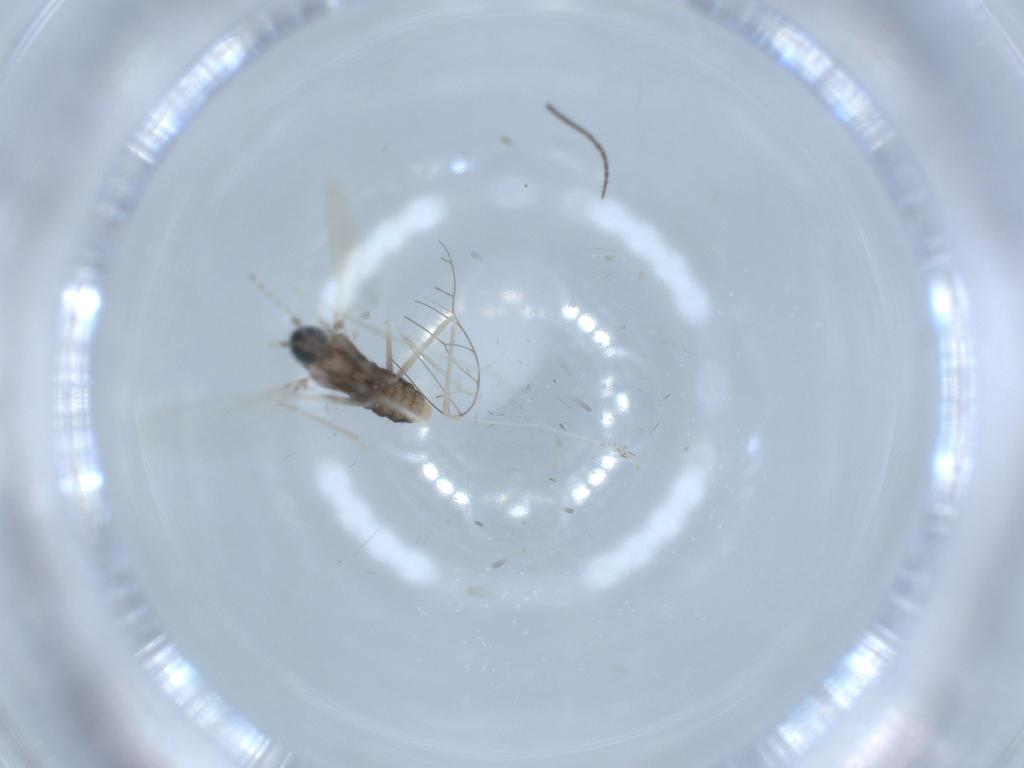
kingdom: Animalia
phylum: Arthropoda
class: Insecta
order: Diptera
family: Cecidomyiidae
